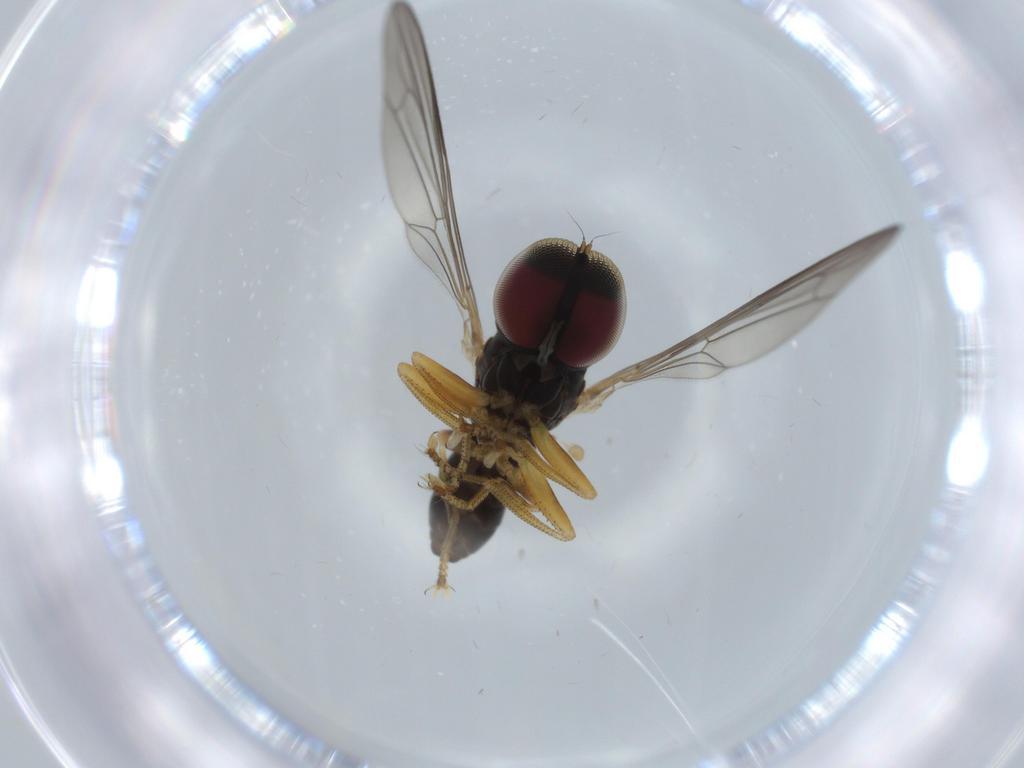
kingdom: Animalia
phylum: Arthropoda
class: Insecta
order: Diptera
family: Pipunculidae
